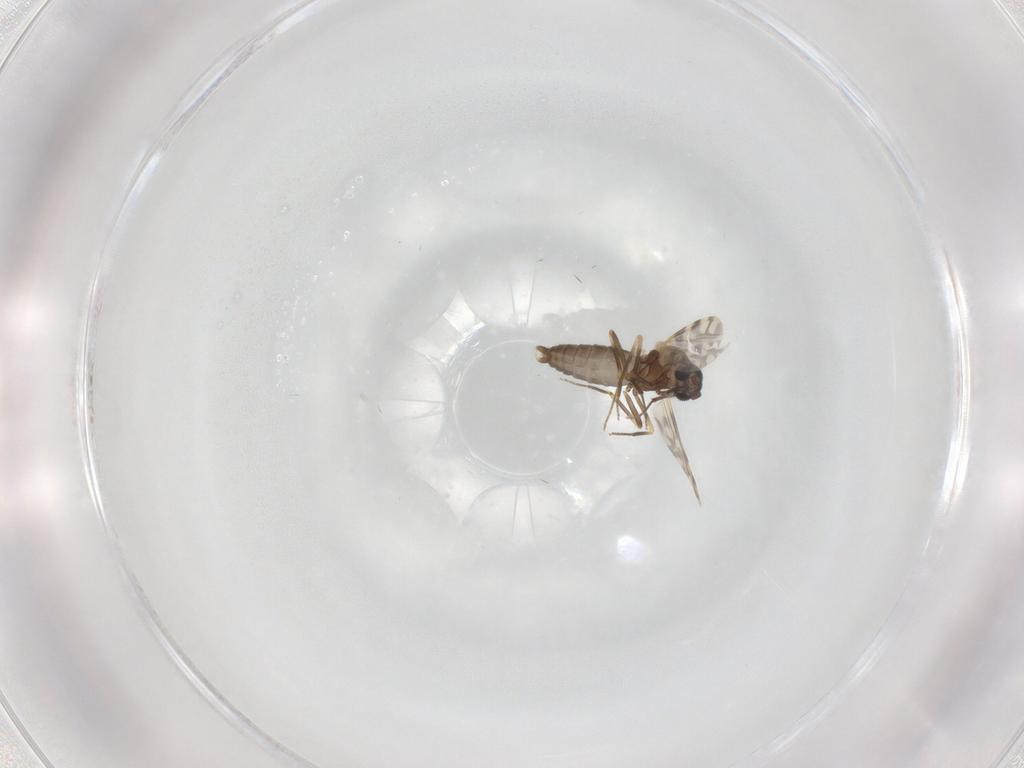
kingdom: Animalia
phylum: Arthropoda
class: Insecta
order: Diptera
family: Ceratopogonidae
